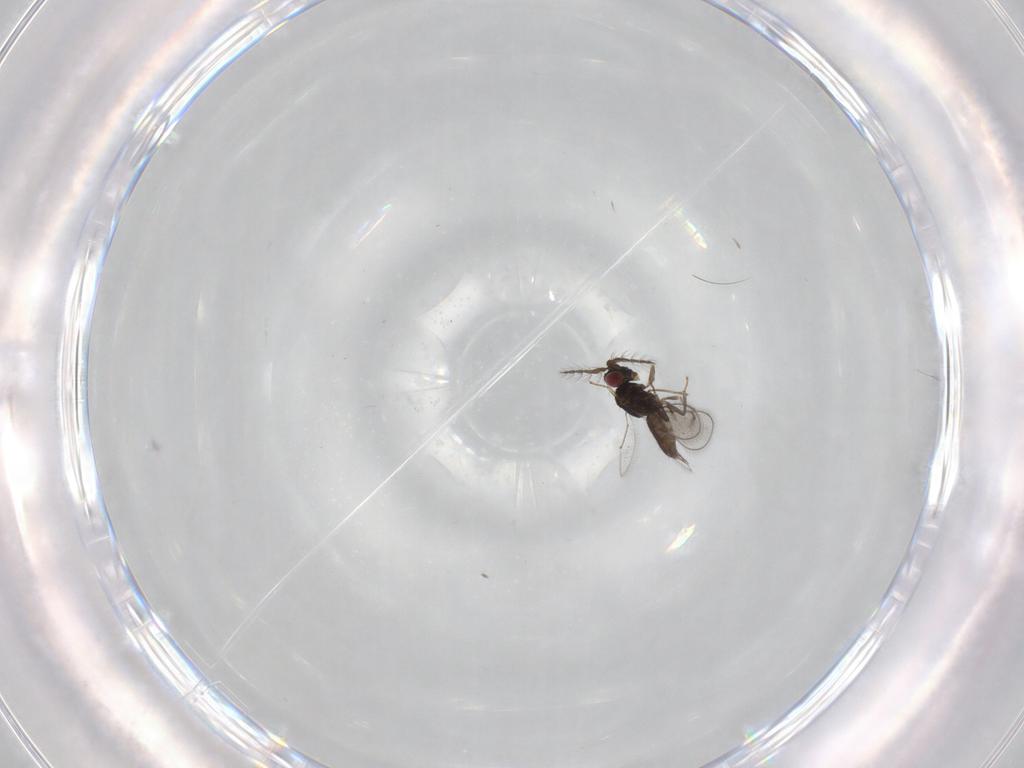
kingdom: Animalia
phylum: Arthropoda
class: Insecta
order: Hymenoptera
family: Eulophidae
